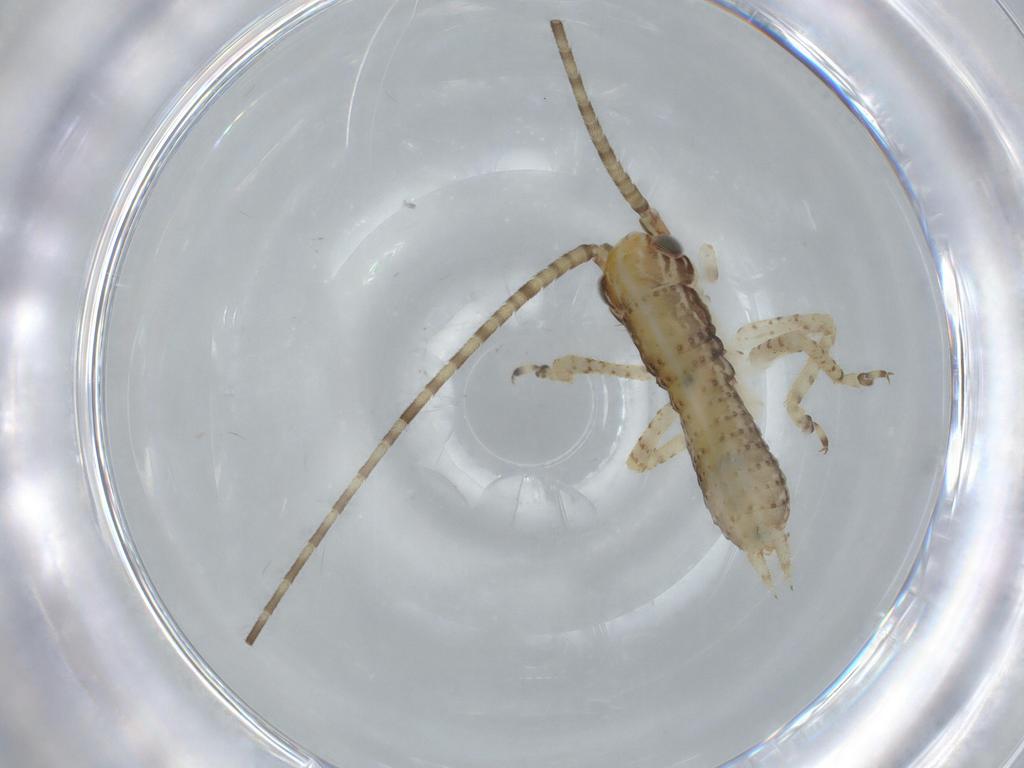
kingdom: Animalia
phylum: Arthropoda
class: Insecta
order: Orthoptera
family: Gryllidae
